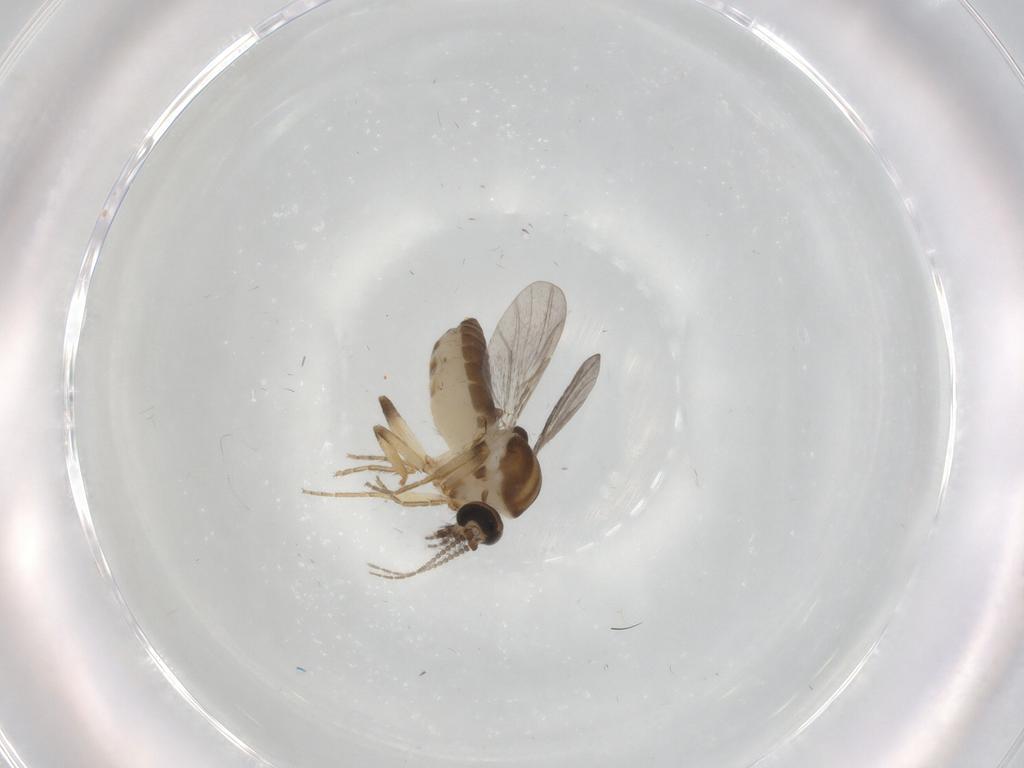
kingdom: Animalia
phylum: Arthropoda
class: Insecta
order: Diptera
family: Ceratopogonidae
